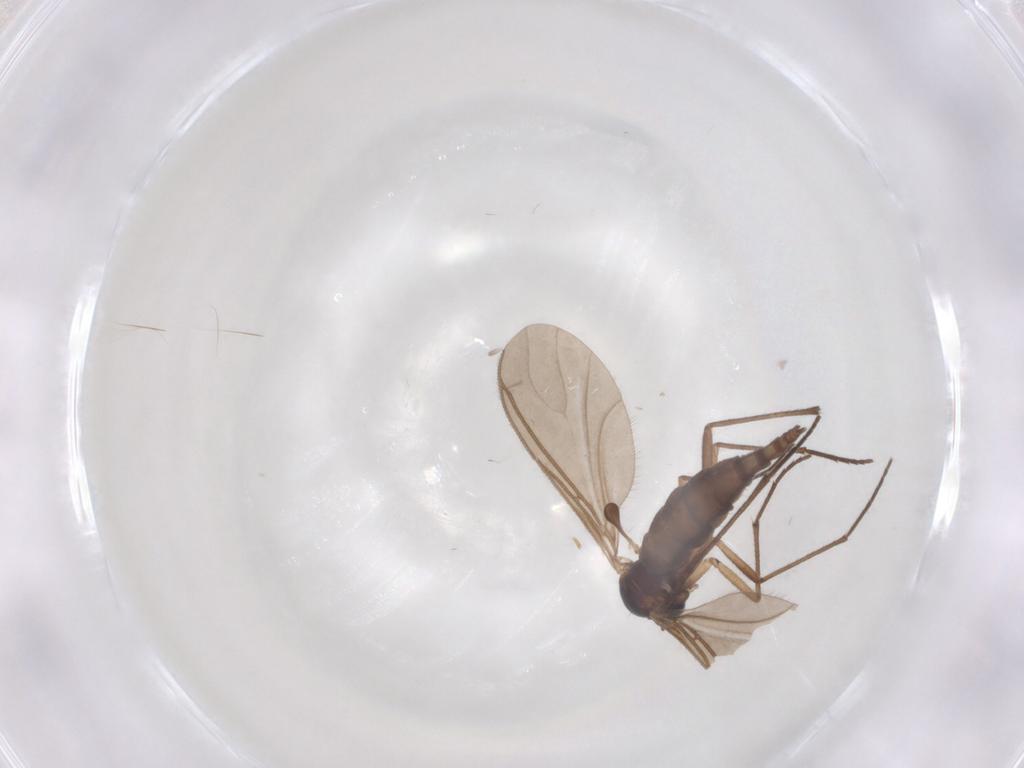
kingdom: Animalia
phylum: Arthropoda
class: Insecta
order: Diptera
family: Sciaridae
